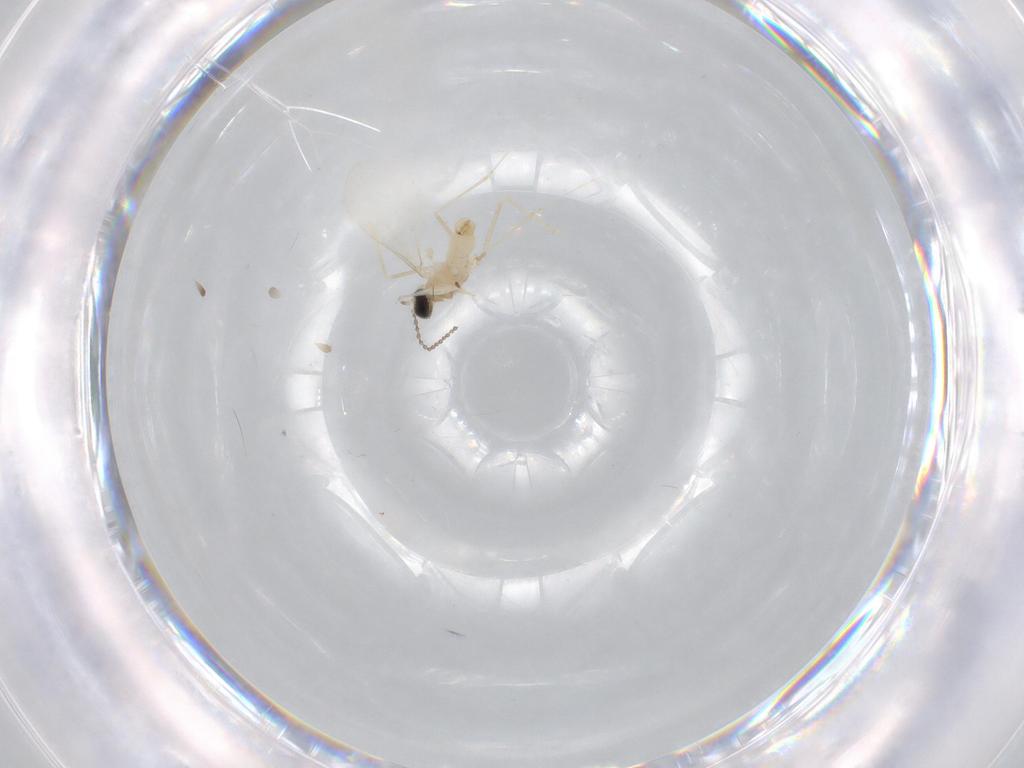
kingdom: Animalia
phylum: Arthropoda
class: Insecta
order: Diptera
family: Cecidomyiidae
